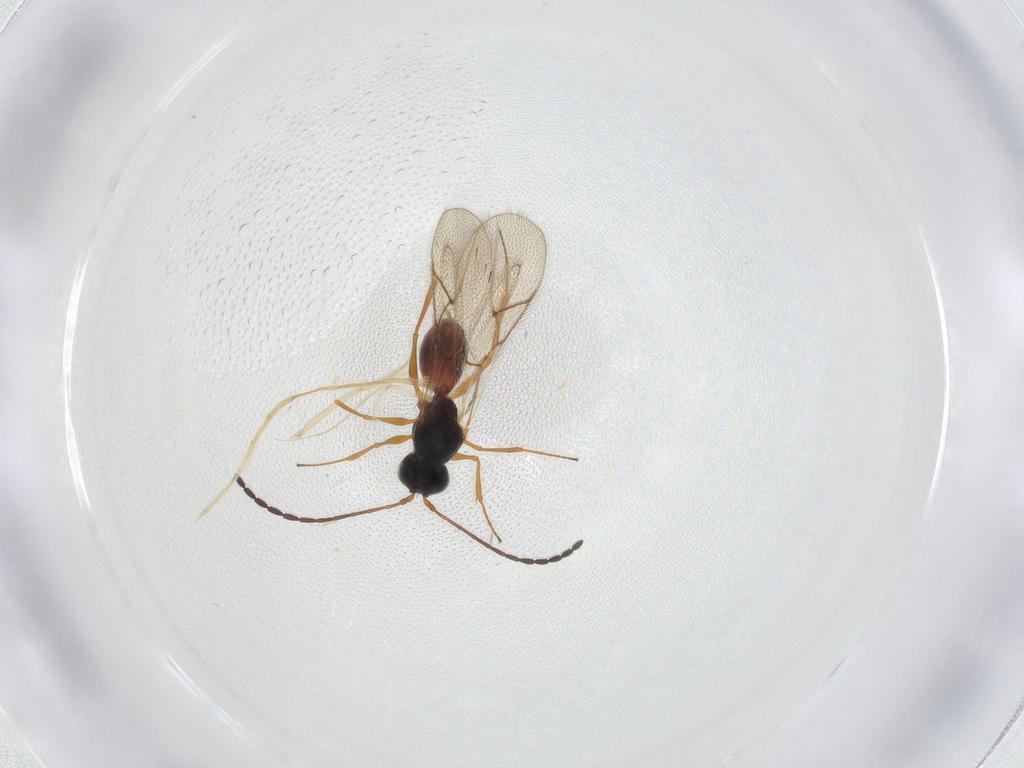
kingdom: Animalia
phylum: Arthropoda
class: Insecta
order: Hymenoptera
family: Figitidae
